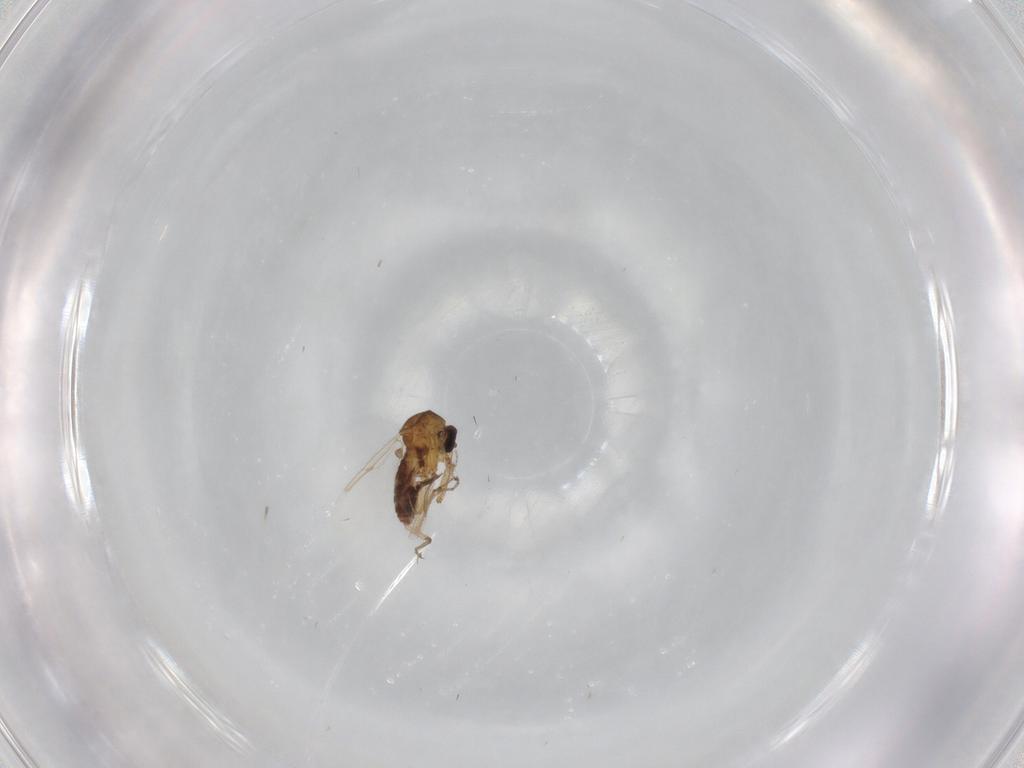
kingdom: Animalia
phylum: Arthropoda
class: Insecta
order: Diptera
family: Ceratopogonidae
